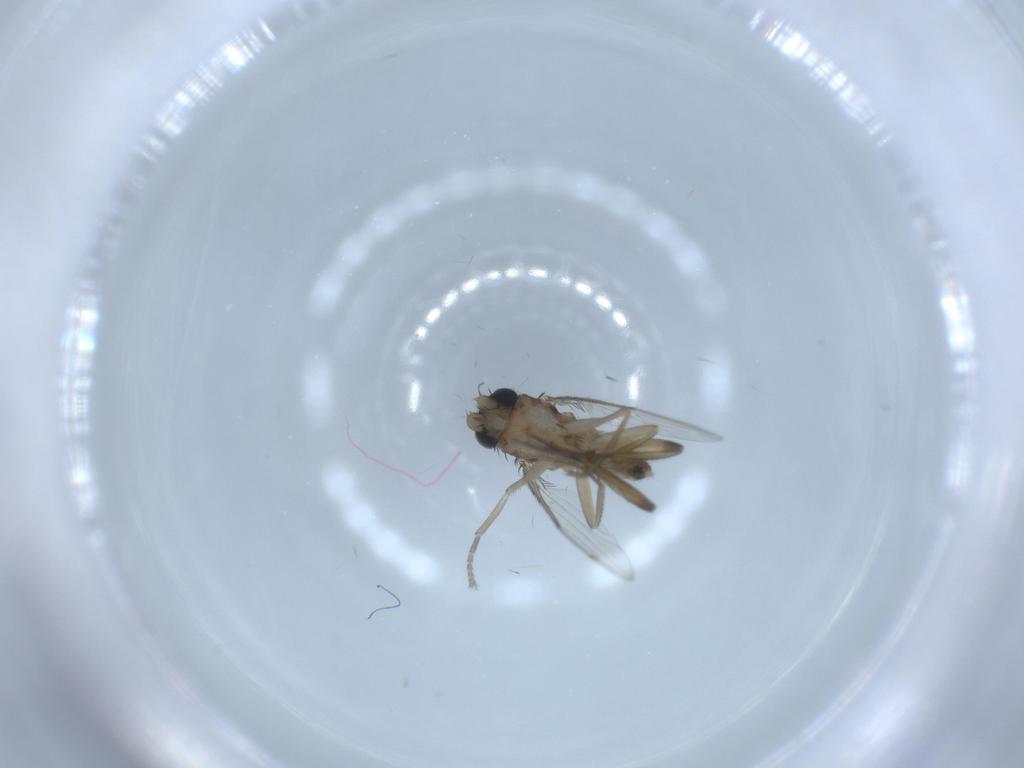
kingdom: Animalia
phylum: Arthropoda
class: Insecta
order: Diptera
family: Phoridae
